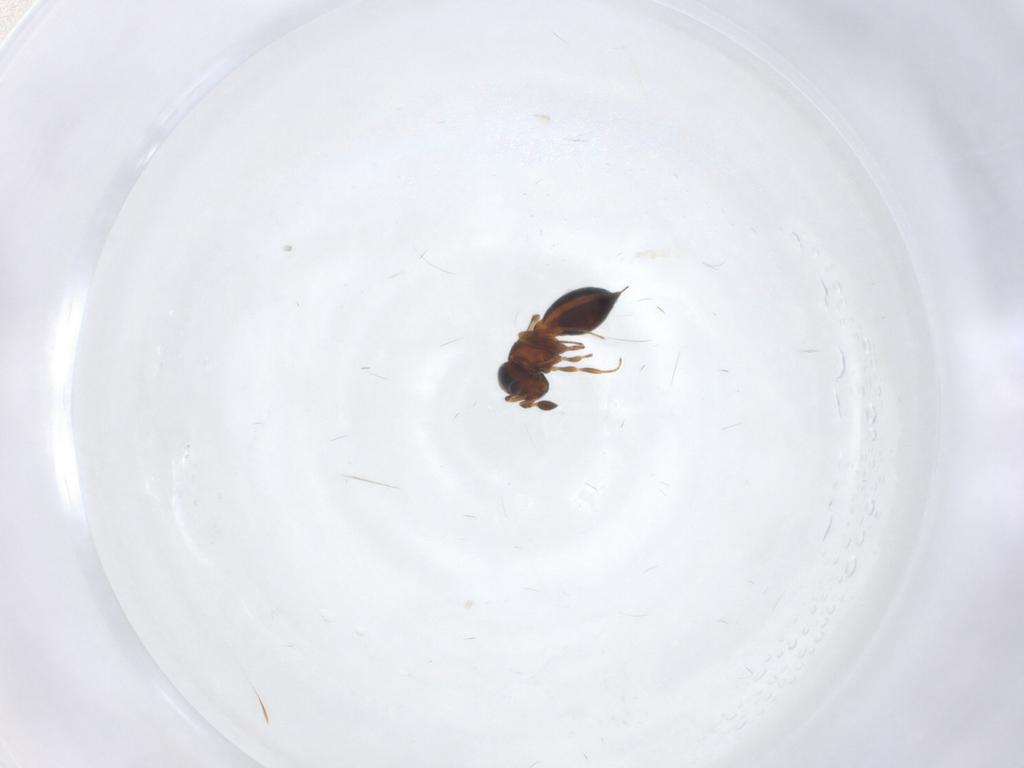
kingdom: Animalia
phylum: Arthropoda
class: Insecta
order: Hymenoptera
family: Scelionidae
